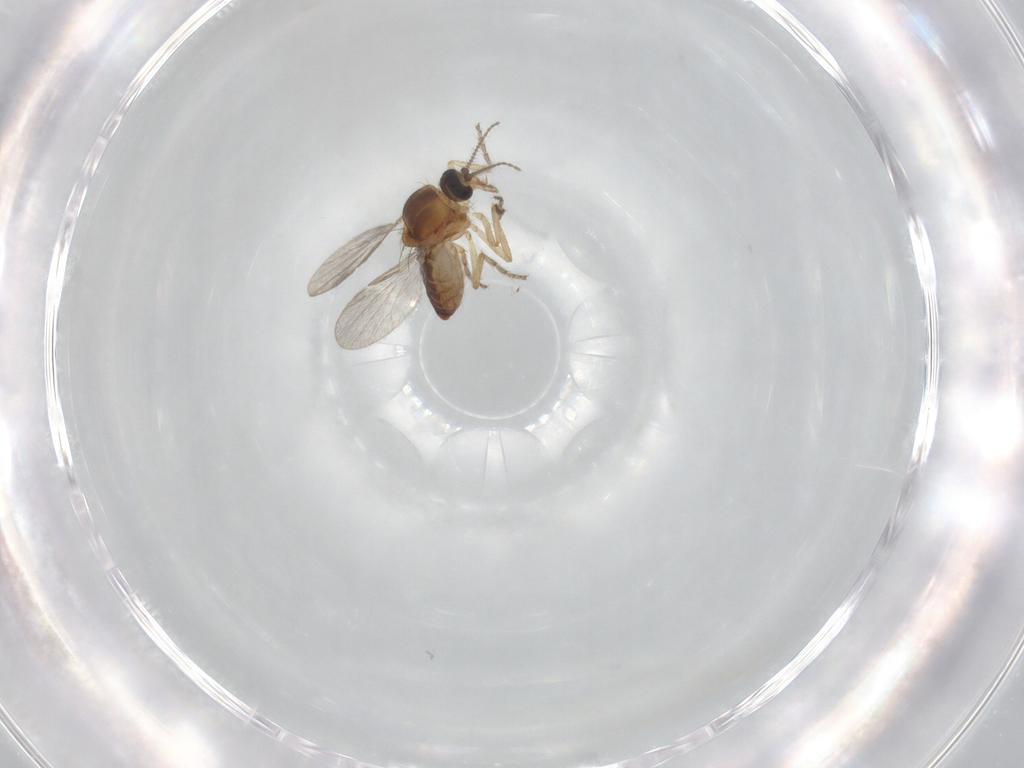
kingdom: Animalia
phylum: Arthropoda
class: Insecta
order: Diptera
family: Ceratopogonidae
